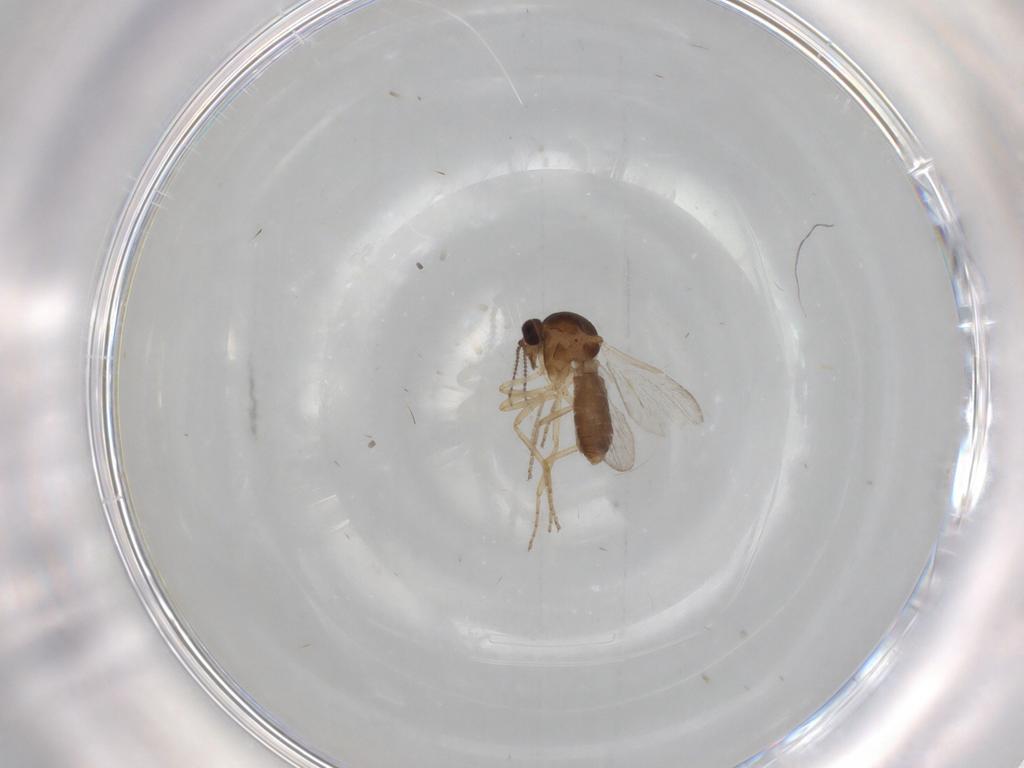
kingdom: Animalia
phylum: Arthropoda
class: Insecta
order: Diptera
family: Ceratopogonidae
